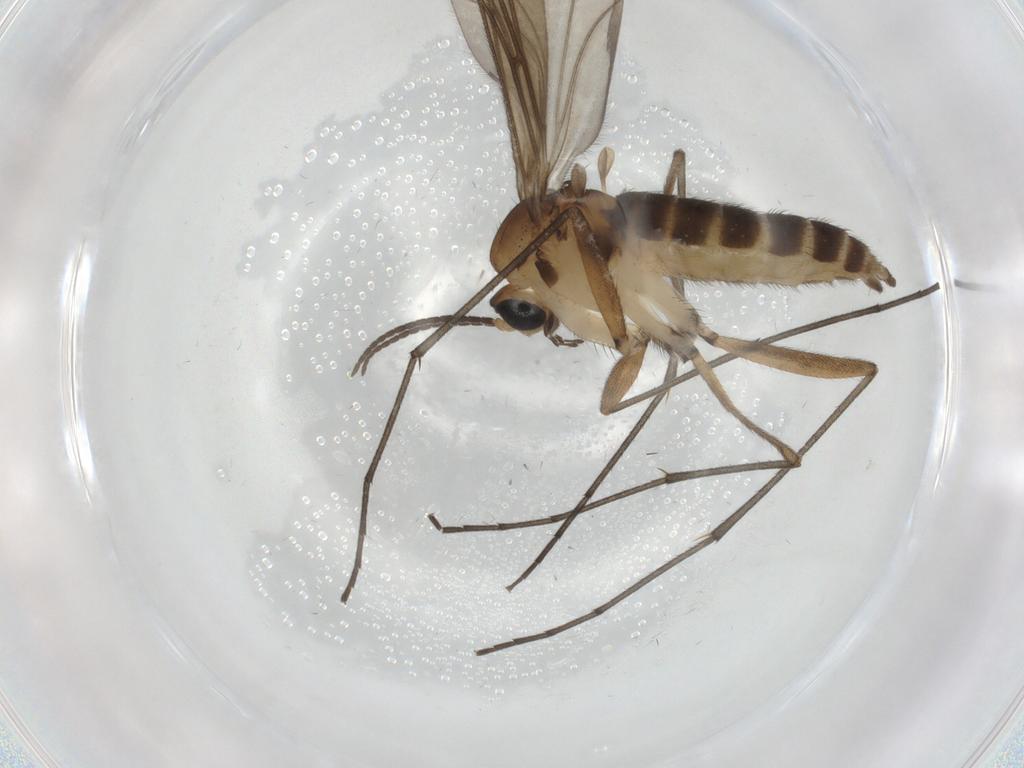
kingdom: Animalia
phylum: Arthropoda
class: Insecta
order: Diptera
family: Sciaridae
